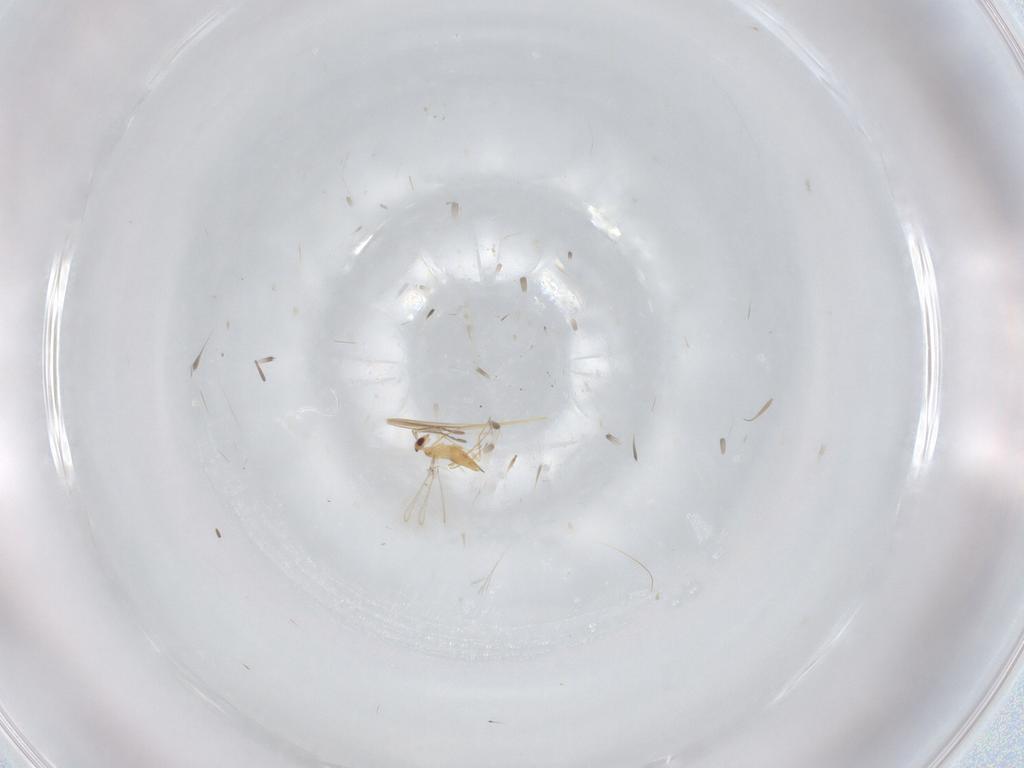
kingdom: Animalia
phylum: Arthropoda
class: Insecta
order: Hymenoptera
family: Mymaridae
